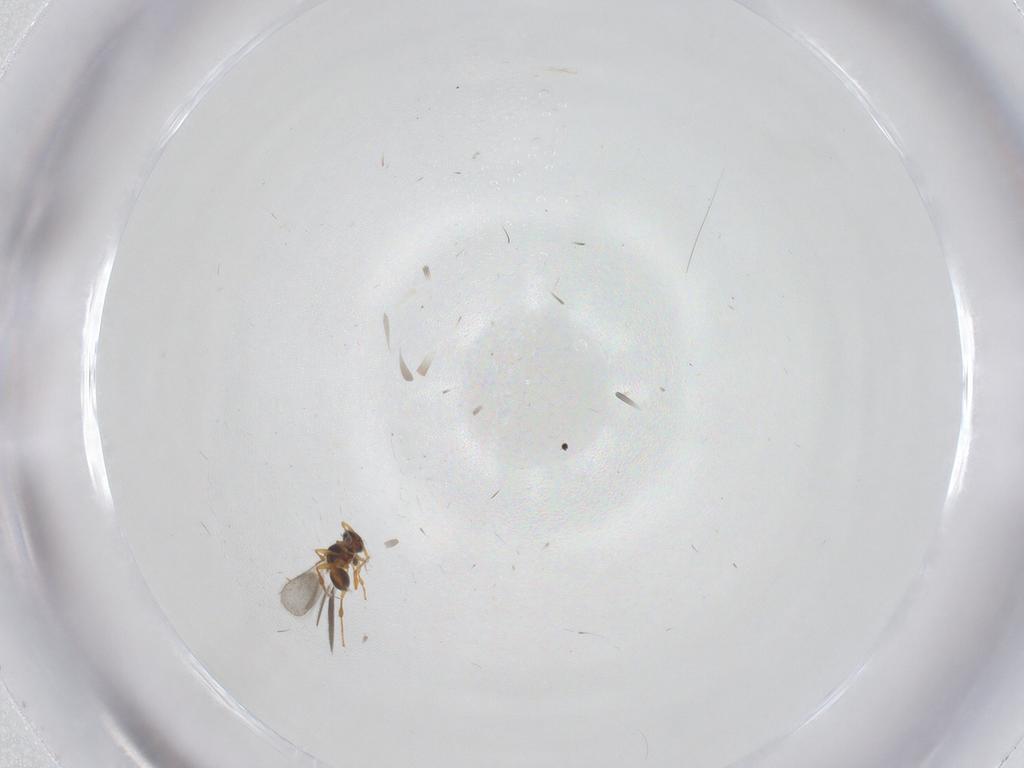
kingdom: Animalia
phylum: Arthropoda
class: Insecta
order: Hymenoptera
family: Platygastridae
